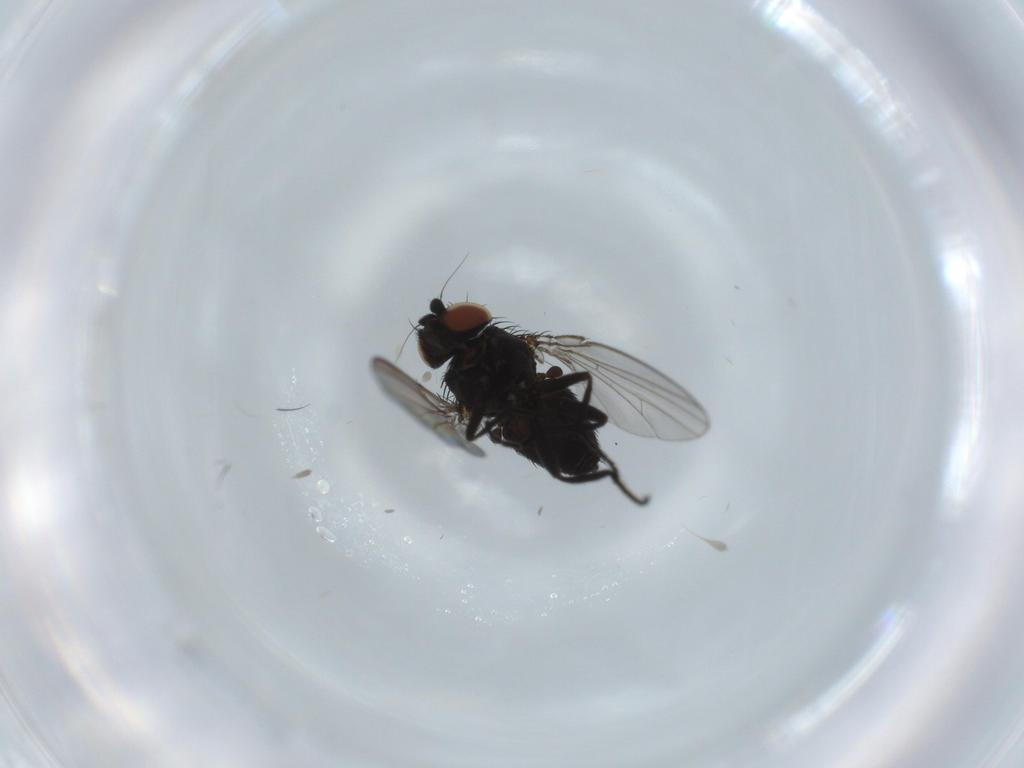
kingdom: Animalia
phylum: Arthropoda
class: Insecta
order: Diptera
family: Milichiidae
